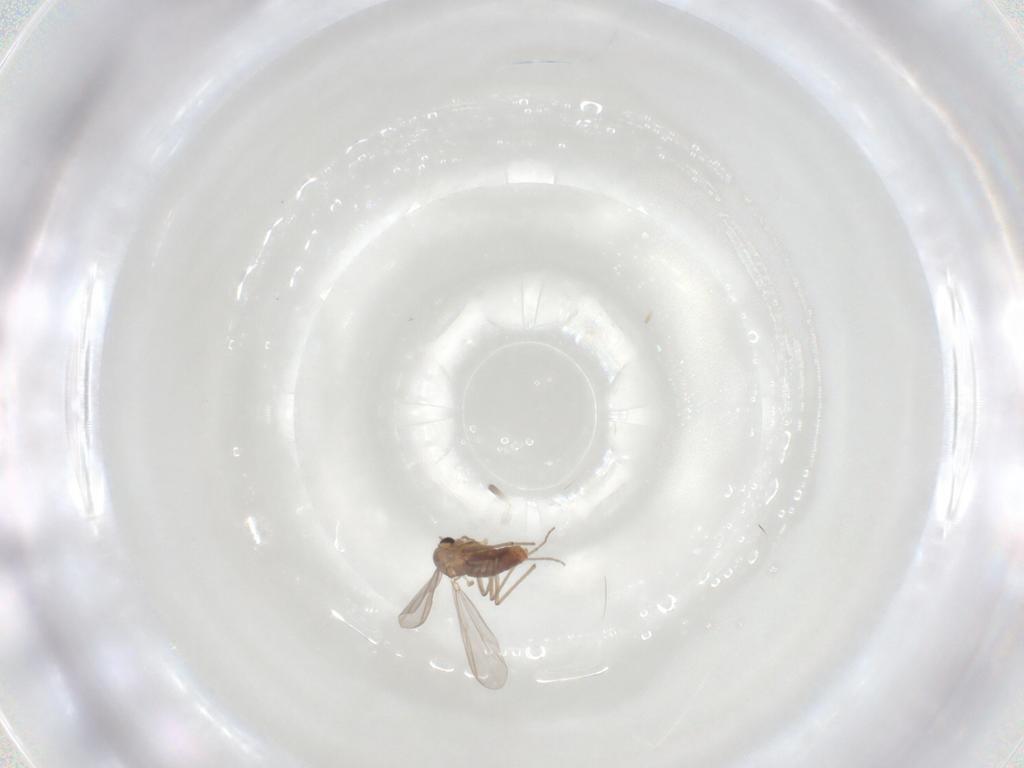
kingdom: Animalia
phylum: Arthropoda
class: Insecta
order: Diptera
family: Chironomidae
